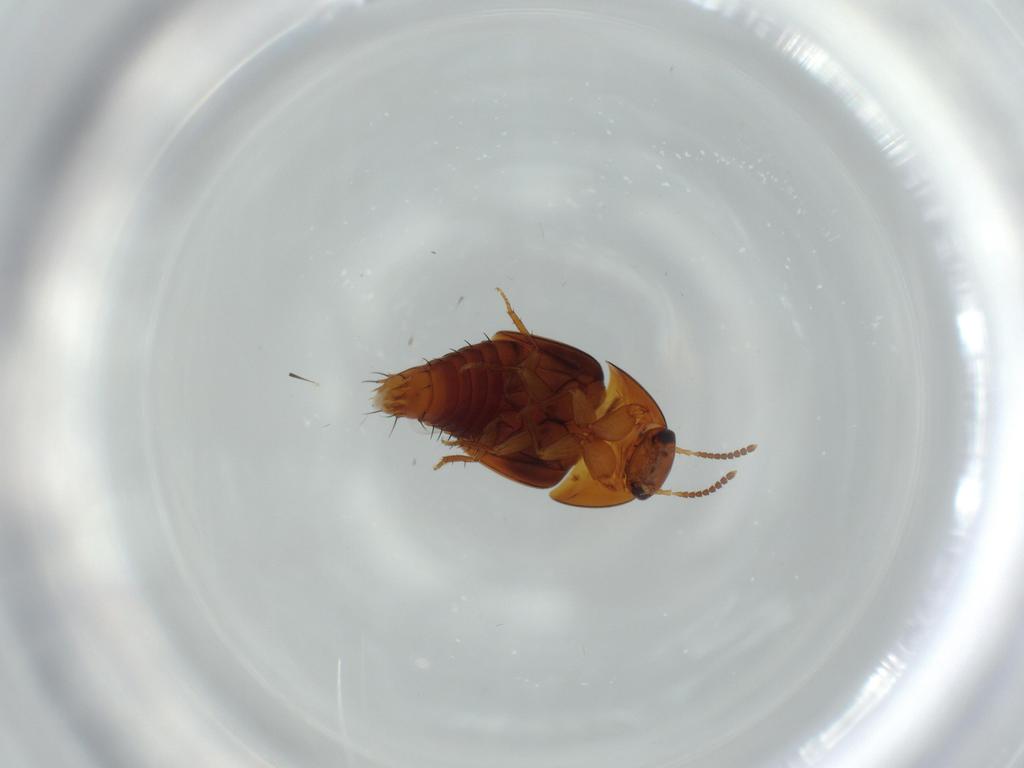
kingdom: Animalia
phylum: Arthropoda
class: Insecta
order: Coleoptera
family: Staphylinidae
